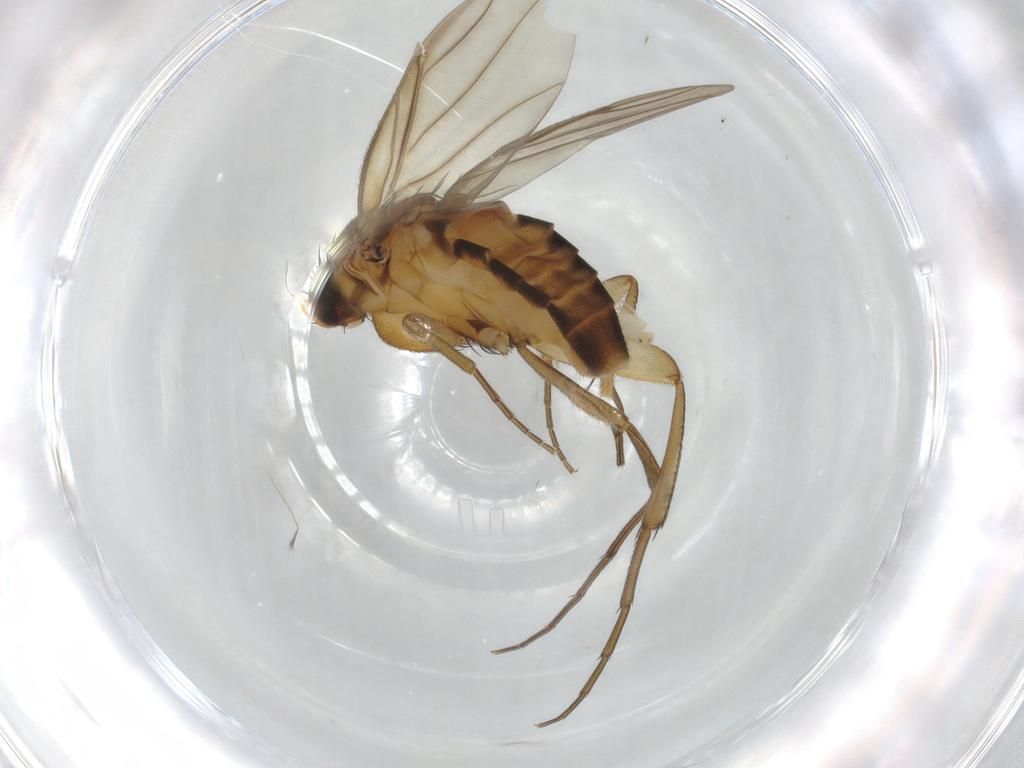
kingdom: Animalia
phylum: Arthropoda
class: Insecta
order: Diptera
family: Phoridae
